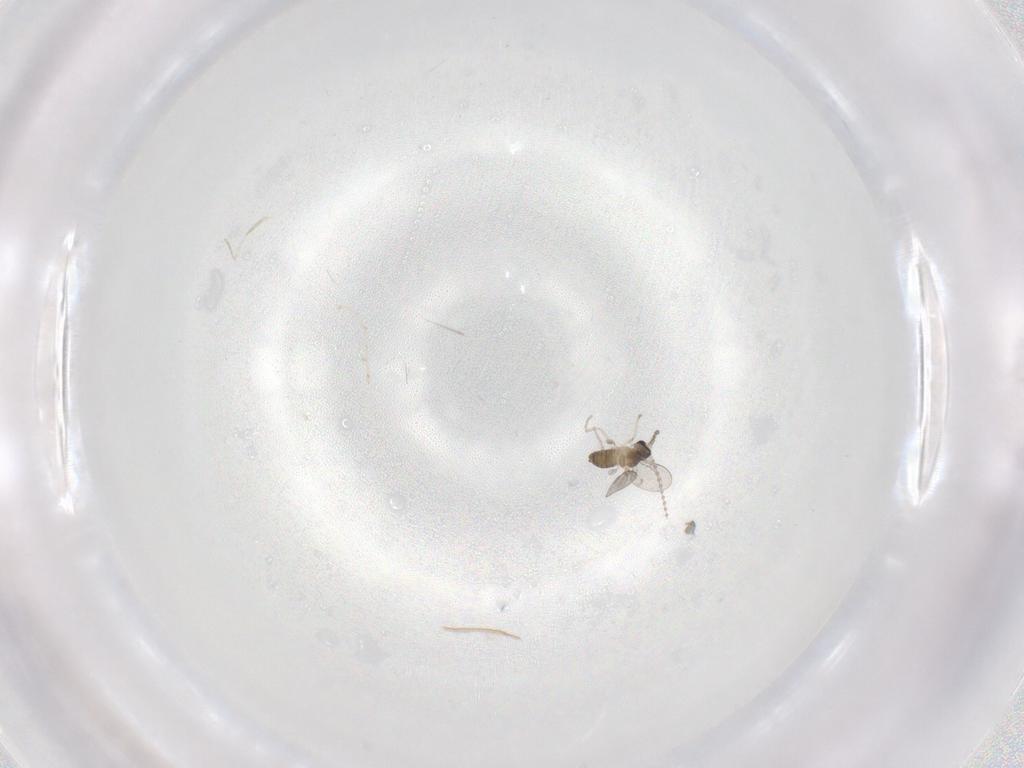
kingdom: Animalia
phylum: Arthropoda
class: Insecta
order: Diptera
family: Cecidomyiidae
